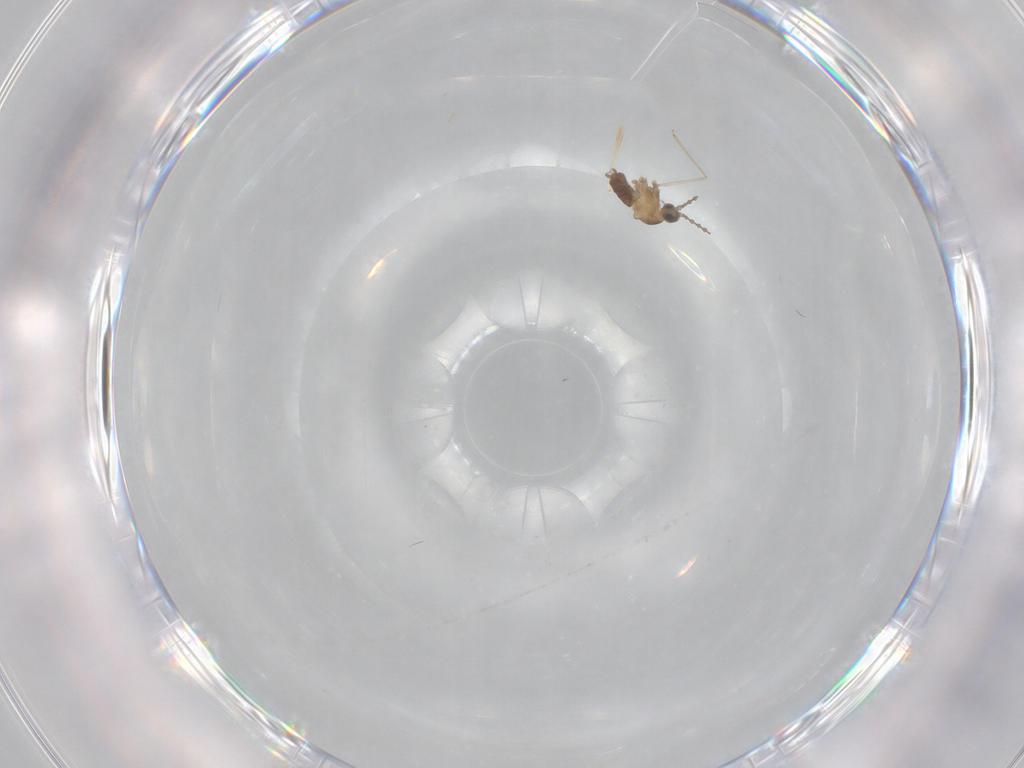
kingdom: Animalia
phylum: Arthropoda
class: Insecta
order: Diptera
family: Cecidomyiidae
